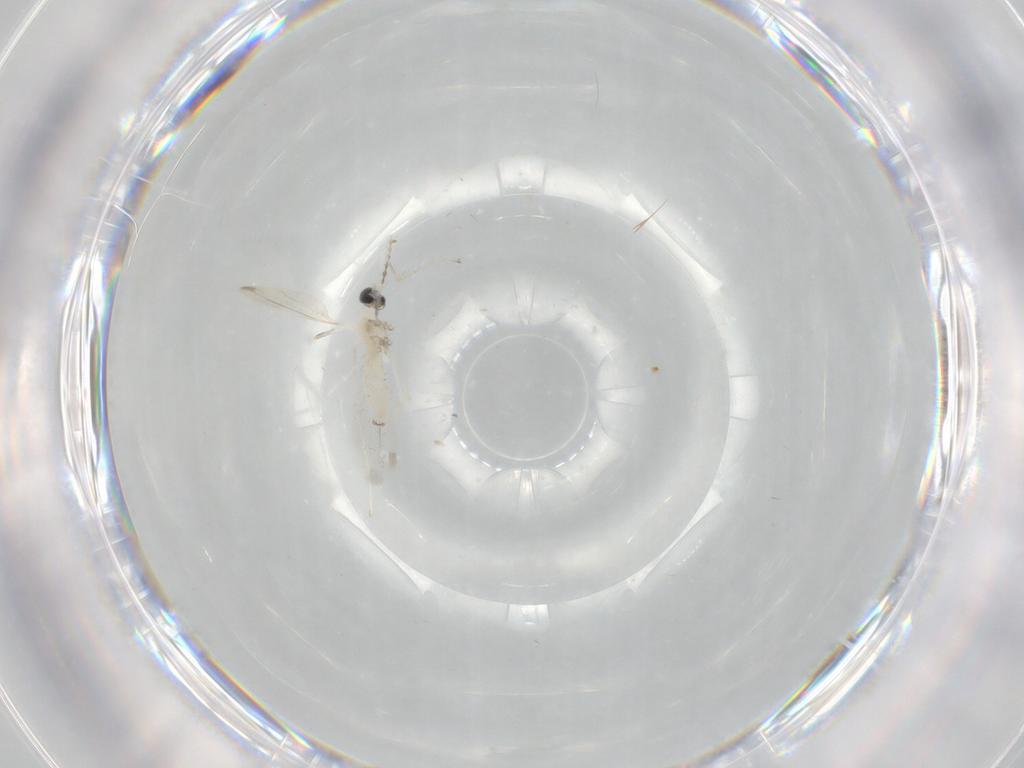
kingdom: Animalia
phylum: Arthropoda
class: Insecta
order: Diptera
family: Cecidomyiidae
